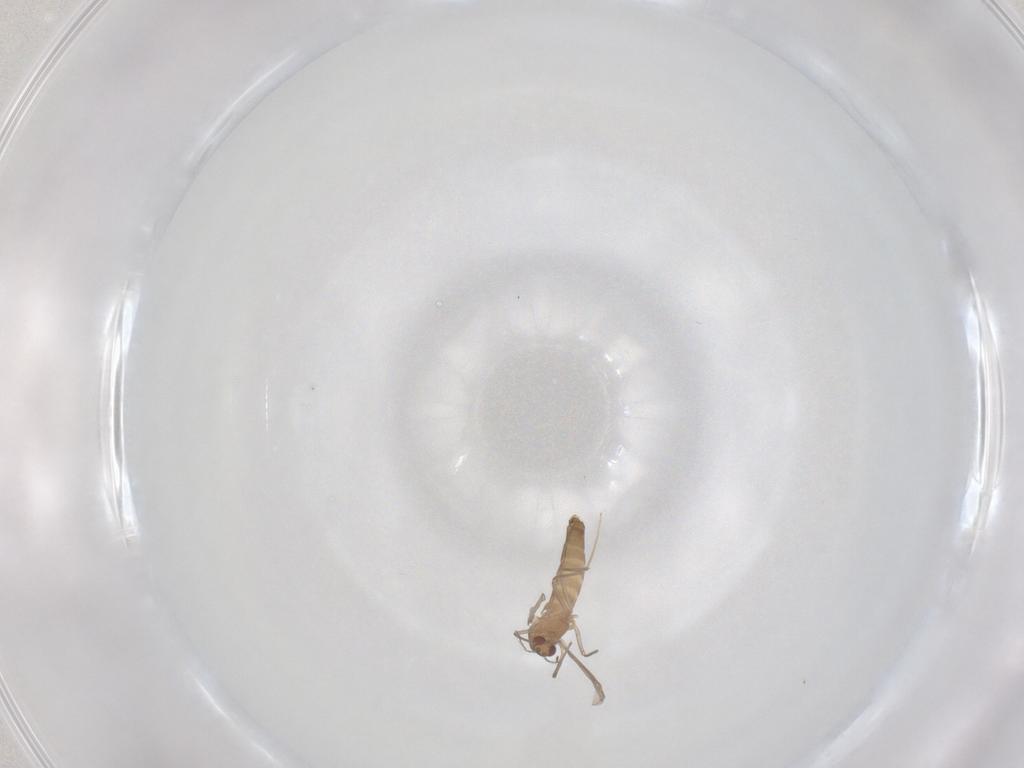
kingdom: Animalia
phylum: Arthropoda
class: Insecta
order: Diptera
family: Chironomidae
